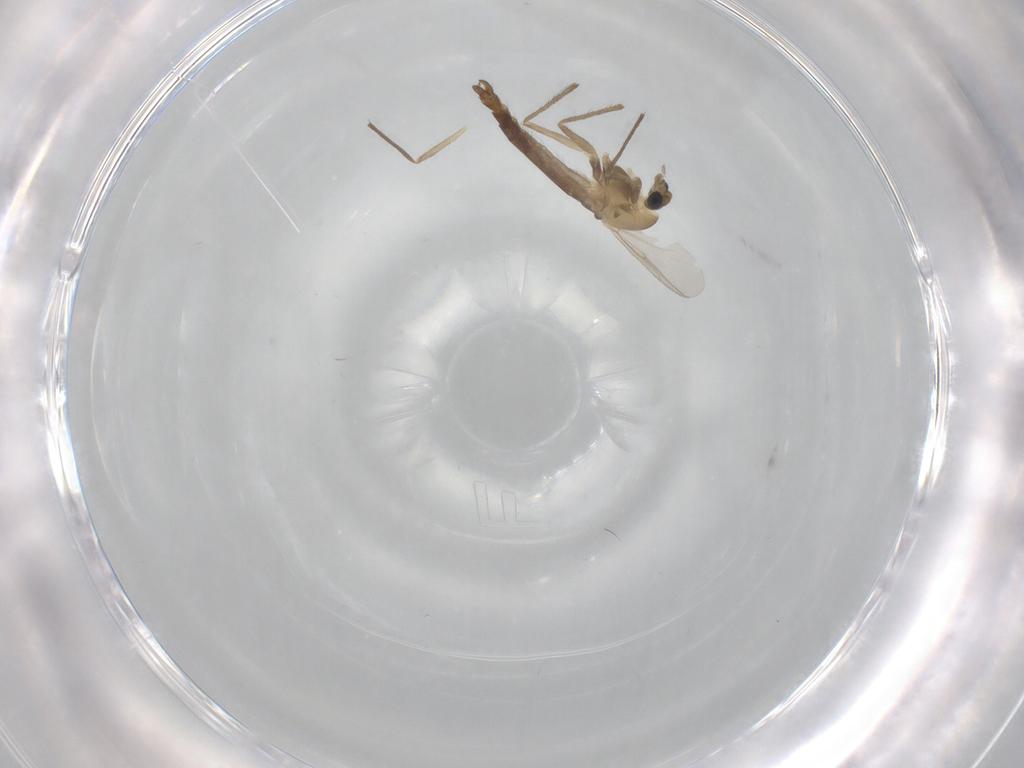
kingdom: Animalia
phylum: Arthropoda
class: Insecta
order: Diptera
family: Chironomidae
